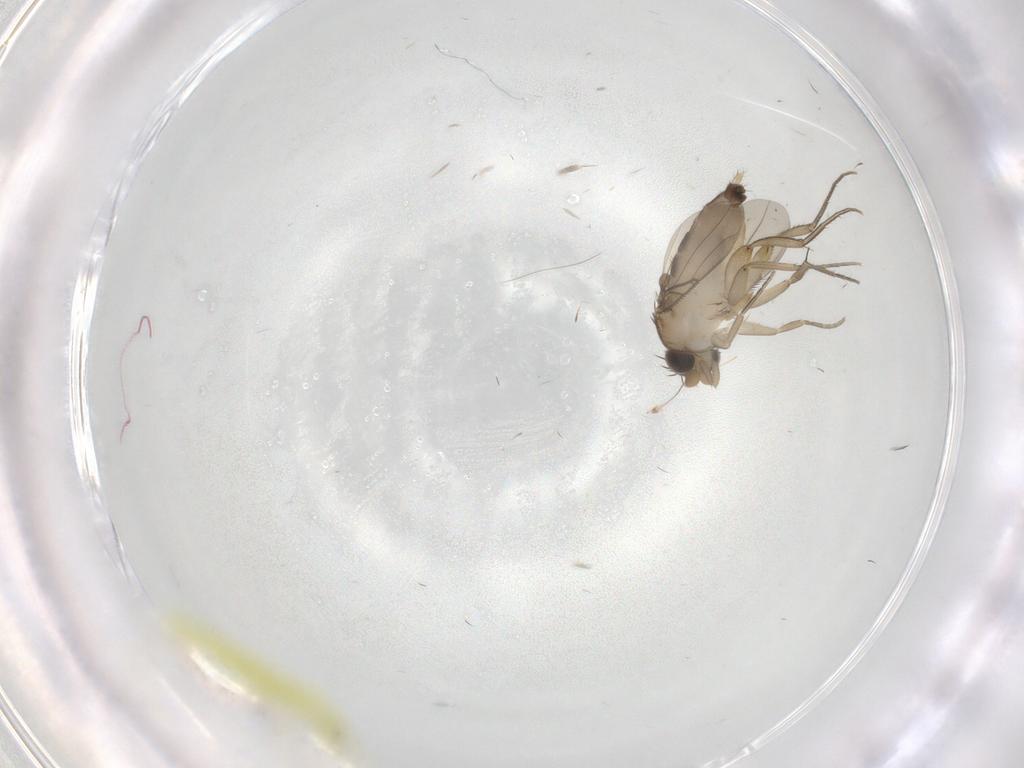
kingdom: Animalia
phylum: Arthropoda
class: Insecta
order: Diptera
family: Phoridae
